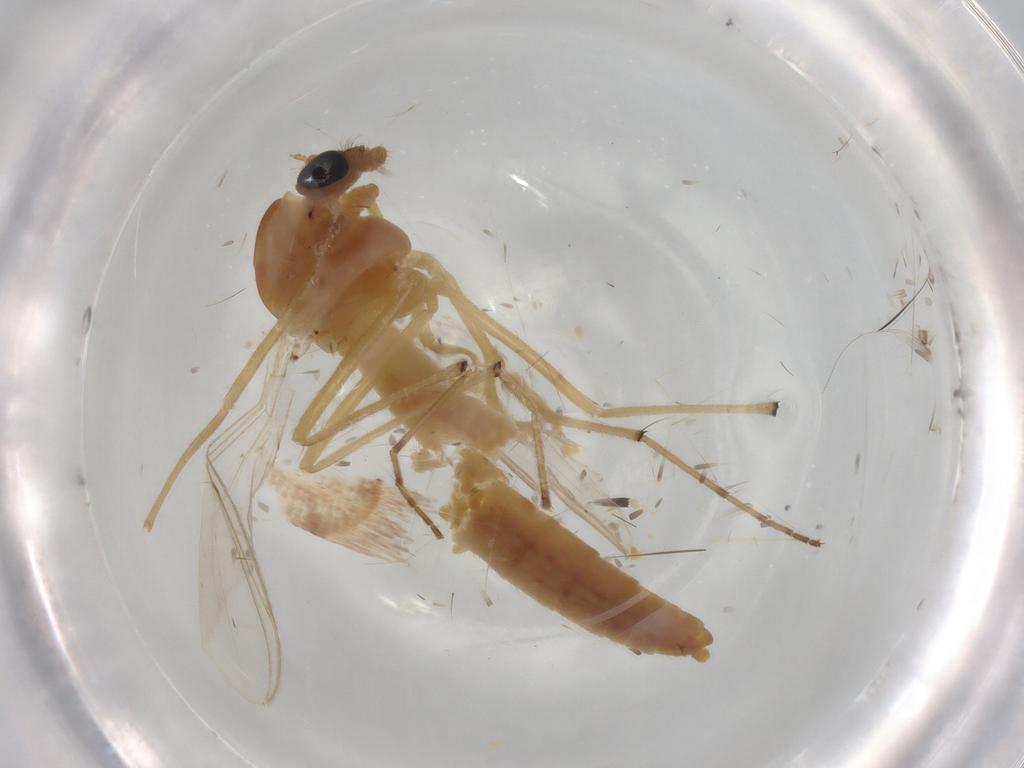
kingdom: Animalia
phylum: Arthropoda
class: Insecta
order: Diptera
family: Chironomidae
